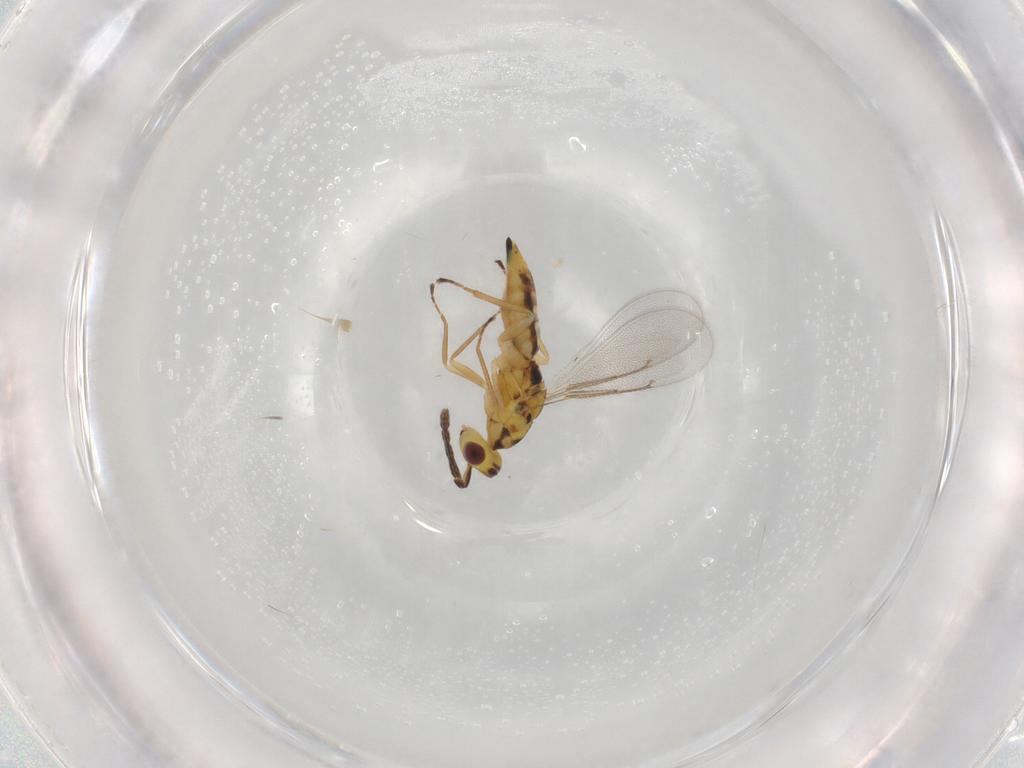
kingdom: Animalia
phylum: Arthropoda
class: Insecta
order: Hymenoptera
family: Eulophidae
